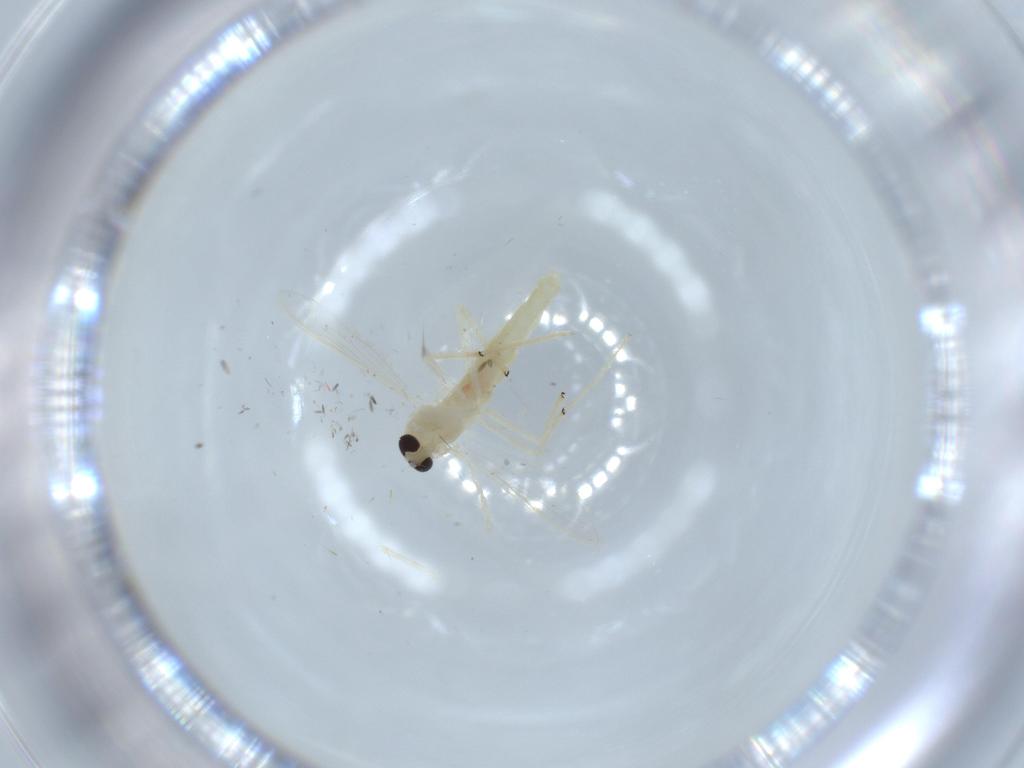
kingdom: Animalia
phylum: Arthropoda
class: Insecta
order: Diptera
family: Chironomidae
